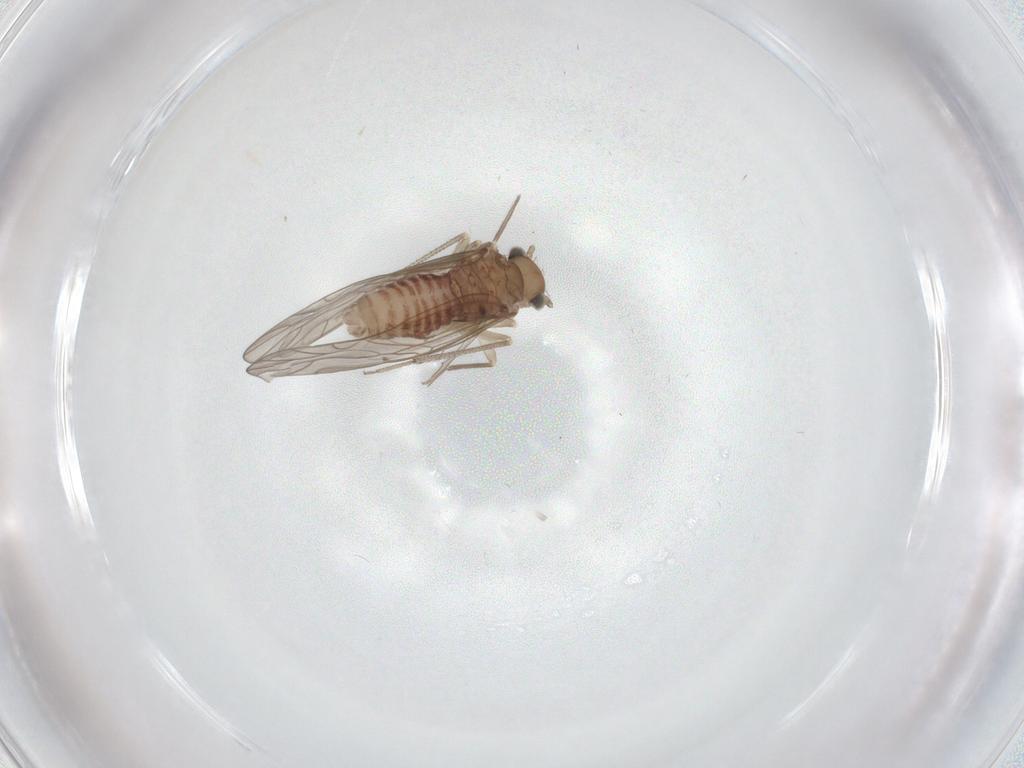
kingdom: Animalia
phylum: Arthropoda
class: Insecta
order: Psocodea
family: Caeciliusidae
